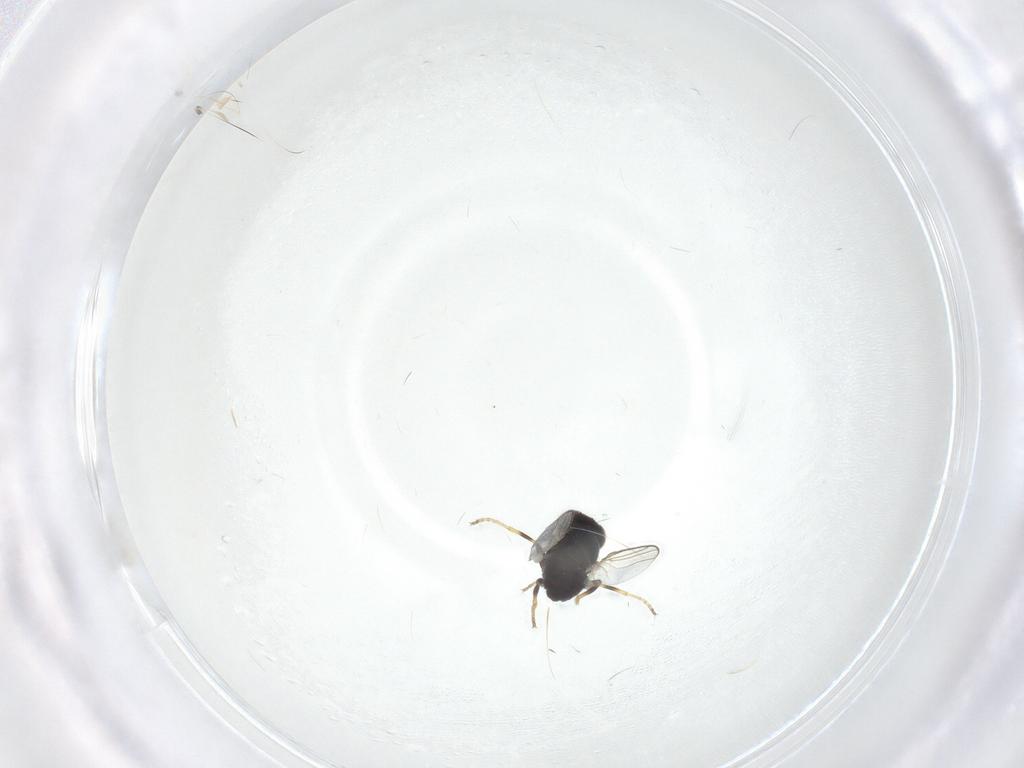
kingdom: Animalia
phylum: Arthropoda
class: Insecta
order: Diptera
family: Chloropidae
